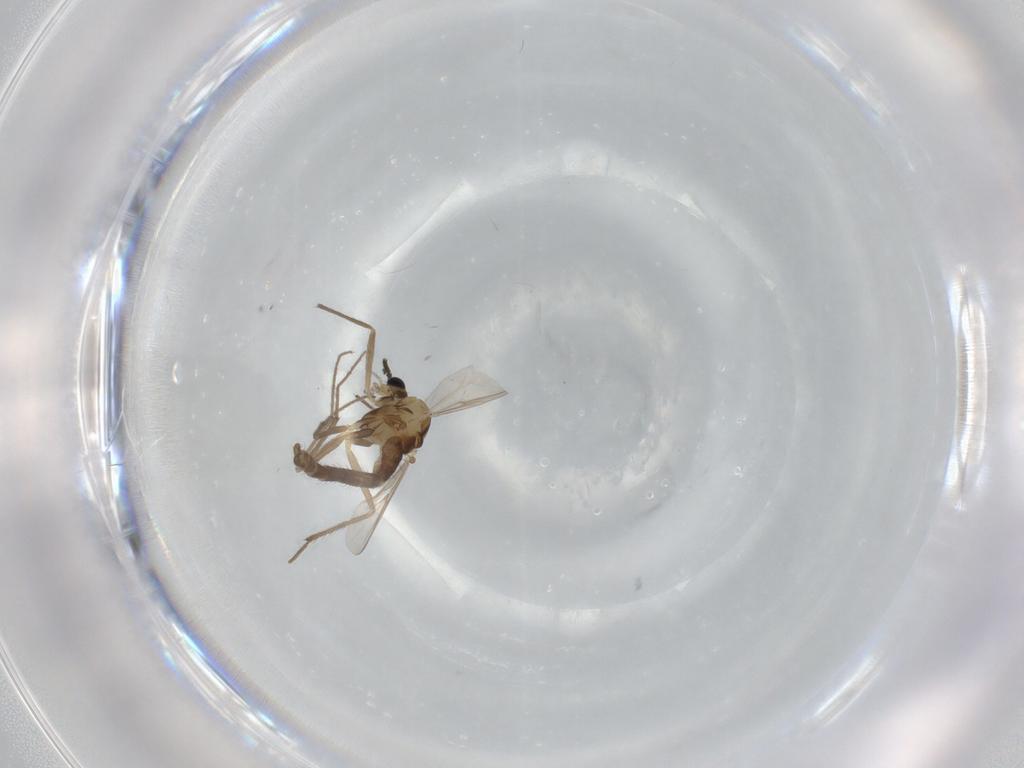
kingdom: Animalia
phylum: Arthropoda
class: Insecta
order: Diptera
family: Chironomidae
